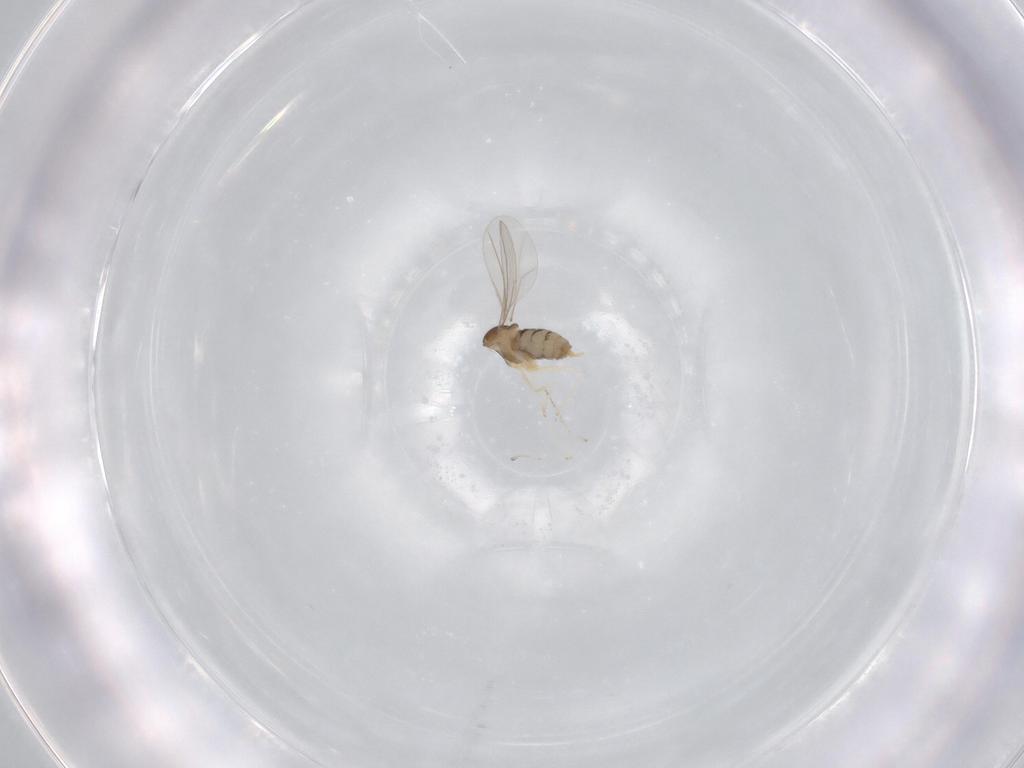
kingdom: Animalia
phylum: Arthropoda
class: Insecta
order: Diptera
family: Cecidomyiidae
